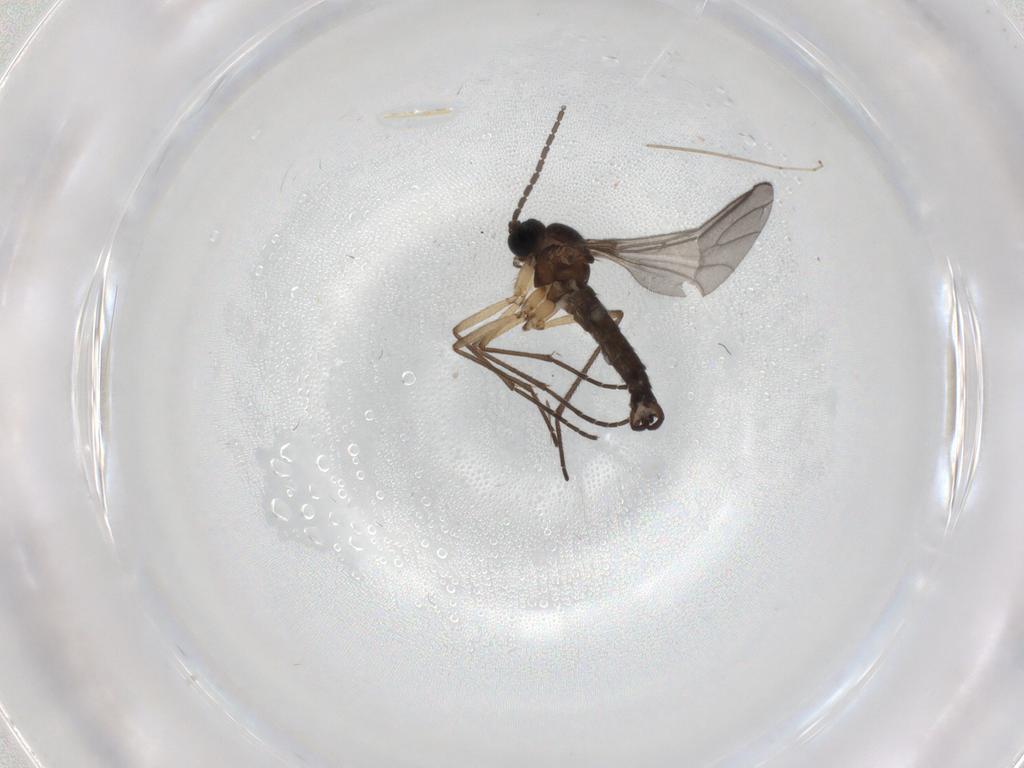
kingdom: Animalia
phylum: Arthropoda
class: Insecta
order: Diptera
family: Sciaridae
